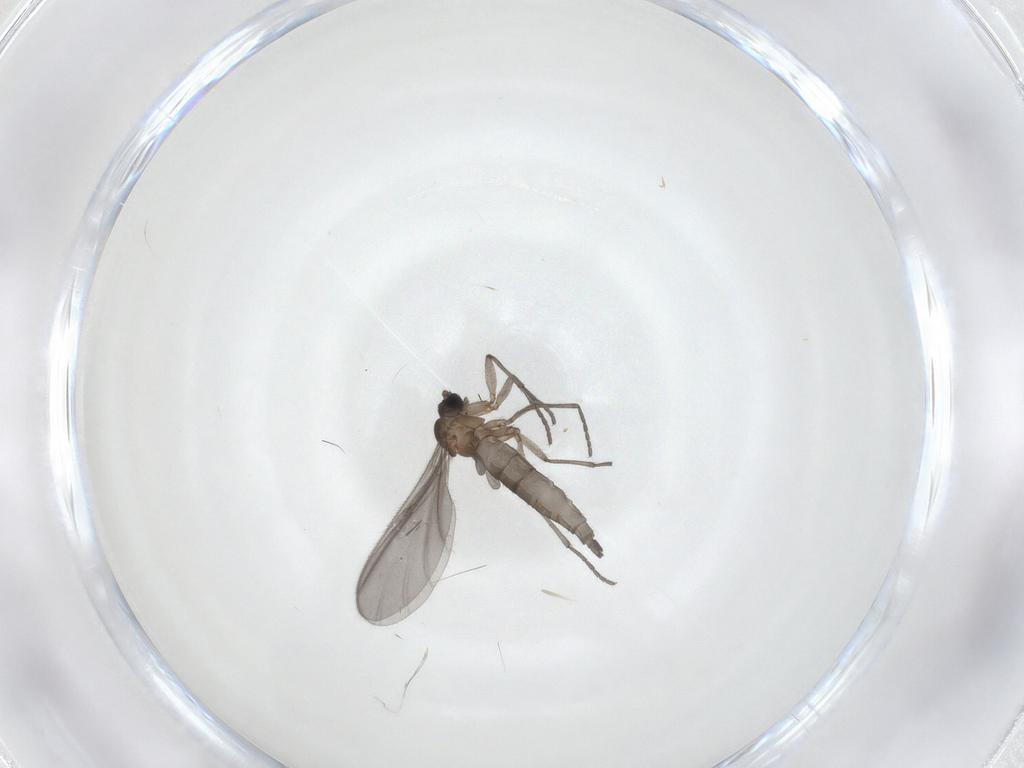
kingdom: Animalia
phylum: Arthropoda
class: Insecta
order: Diptera
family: Sciaridae
